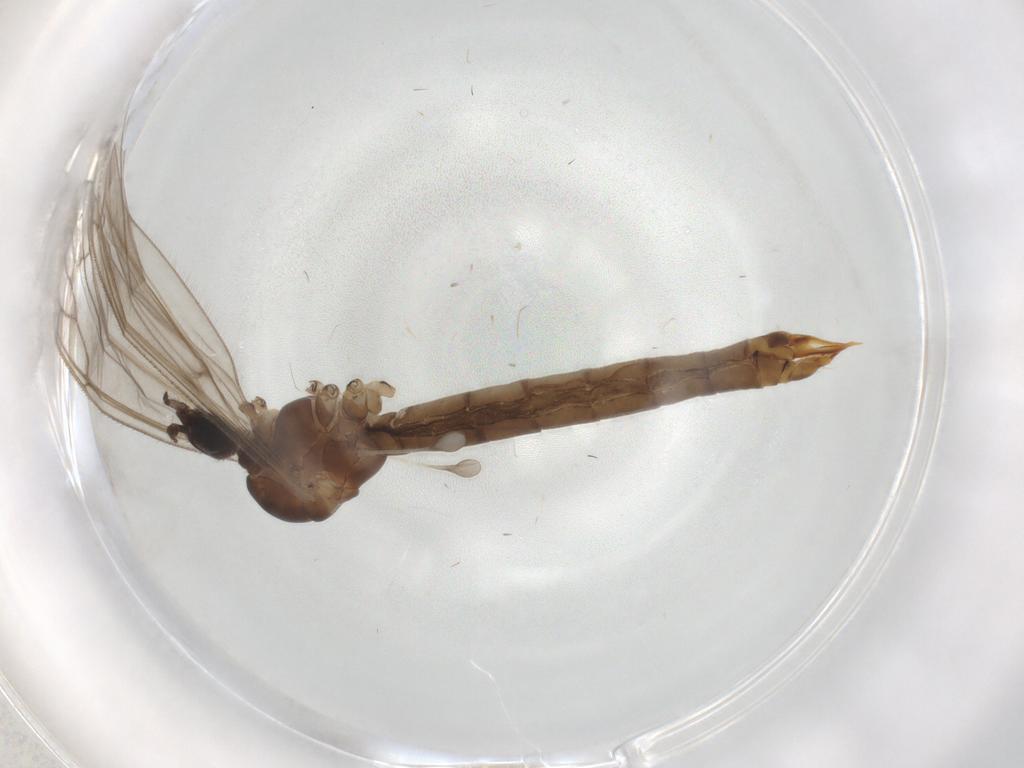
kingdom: Animalia
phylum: Arthropoda
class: Insecta
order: Diptera
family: Limoniidae
